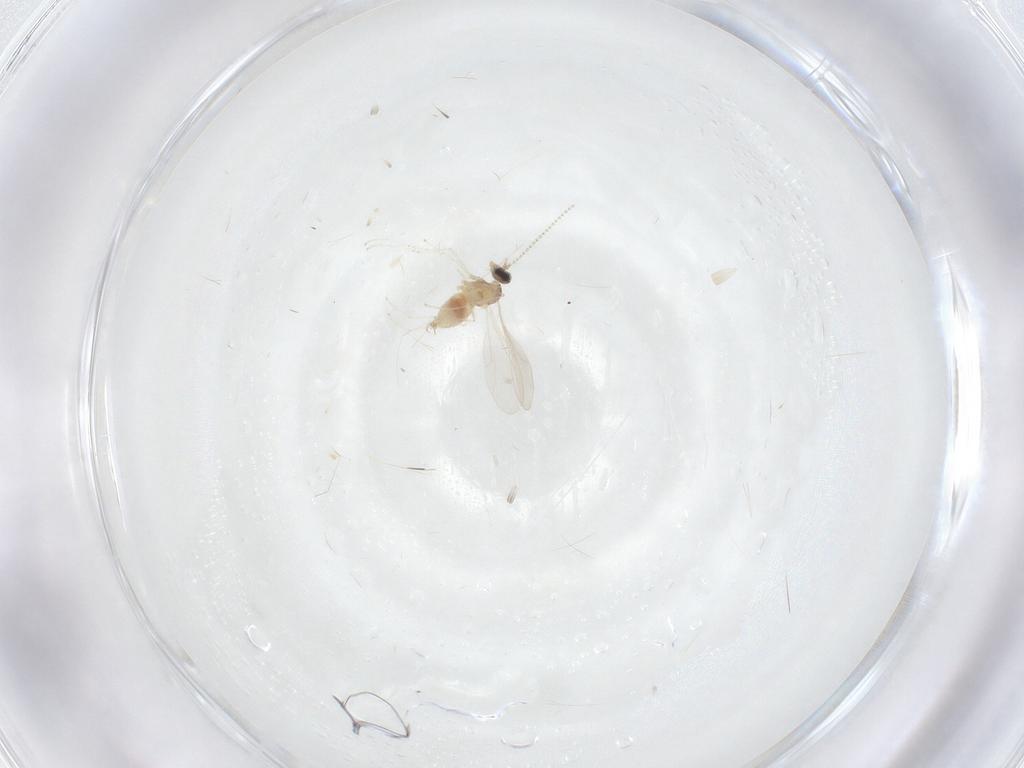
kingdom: Animalia
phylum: Arthropoda
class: Insecta
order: Diptera
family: Cecidomyiidae
